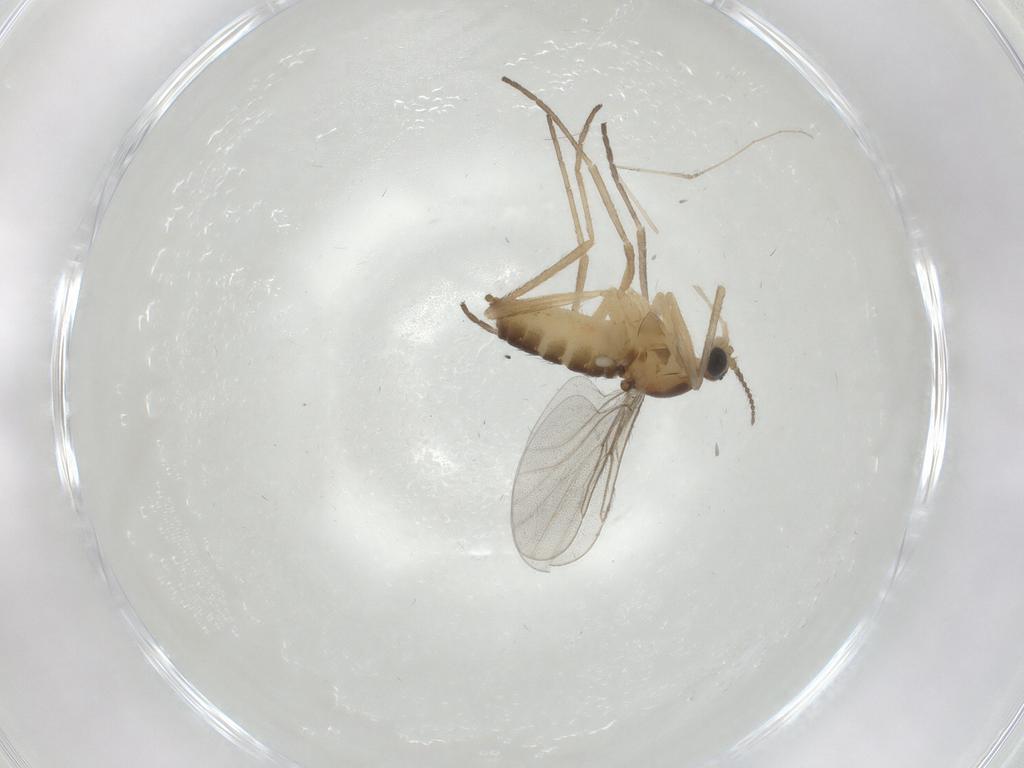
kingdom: Animalia
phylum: Arthropoda
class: Insecta
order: Diptera
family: Cecidomyiidae
